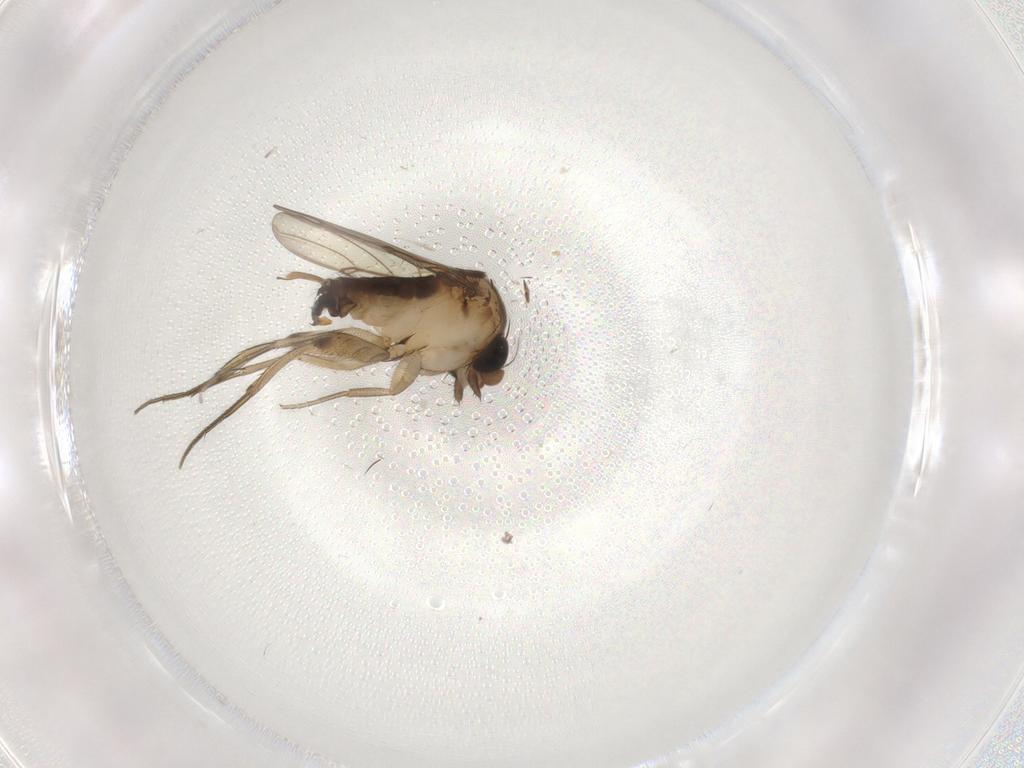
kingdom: Animalia
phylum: Arthropoda
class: Insecta
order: Diptera
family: Phoridae
